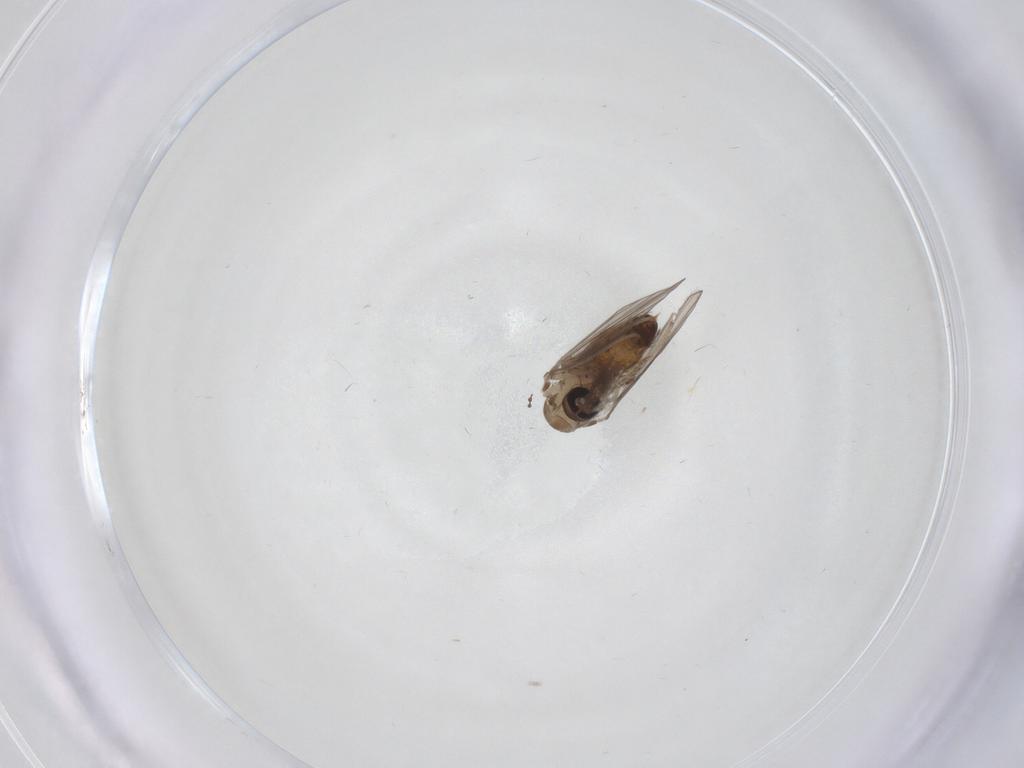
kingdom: Animalia
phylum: Arthropoda
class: Insecta
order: Diptera
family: Psychodidae
